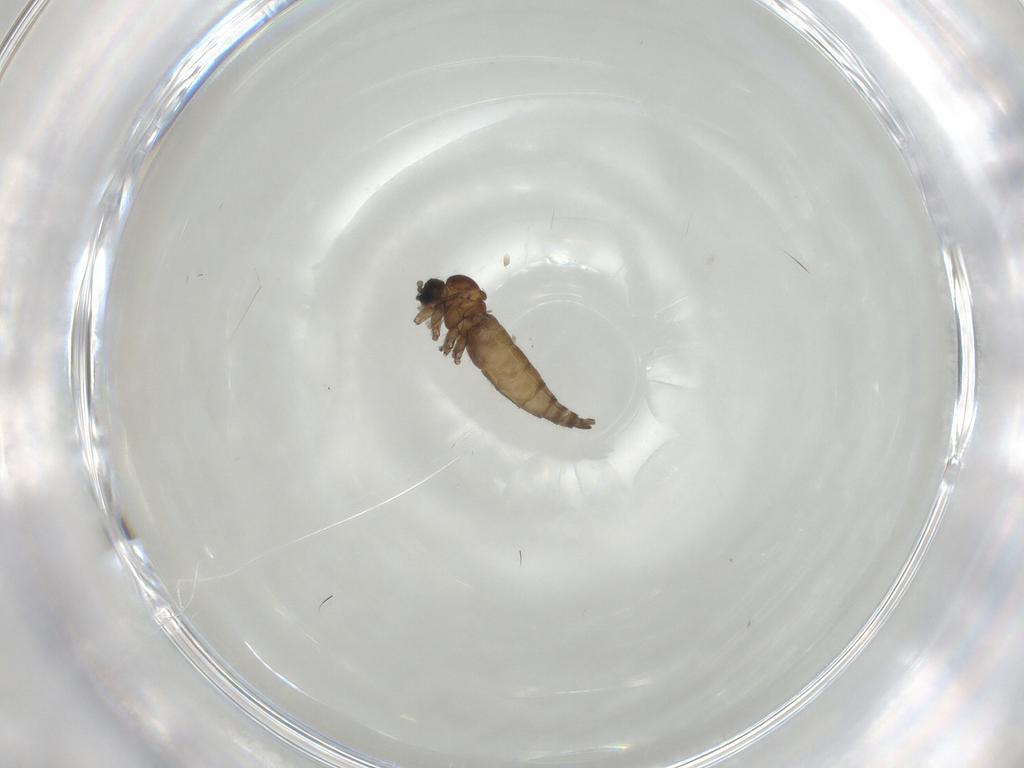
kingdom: Animalia
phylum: Arthropoda
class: Insecta
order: Diptera
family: Sciaridae
